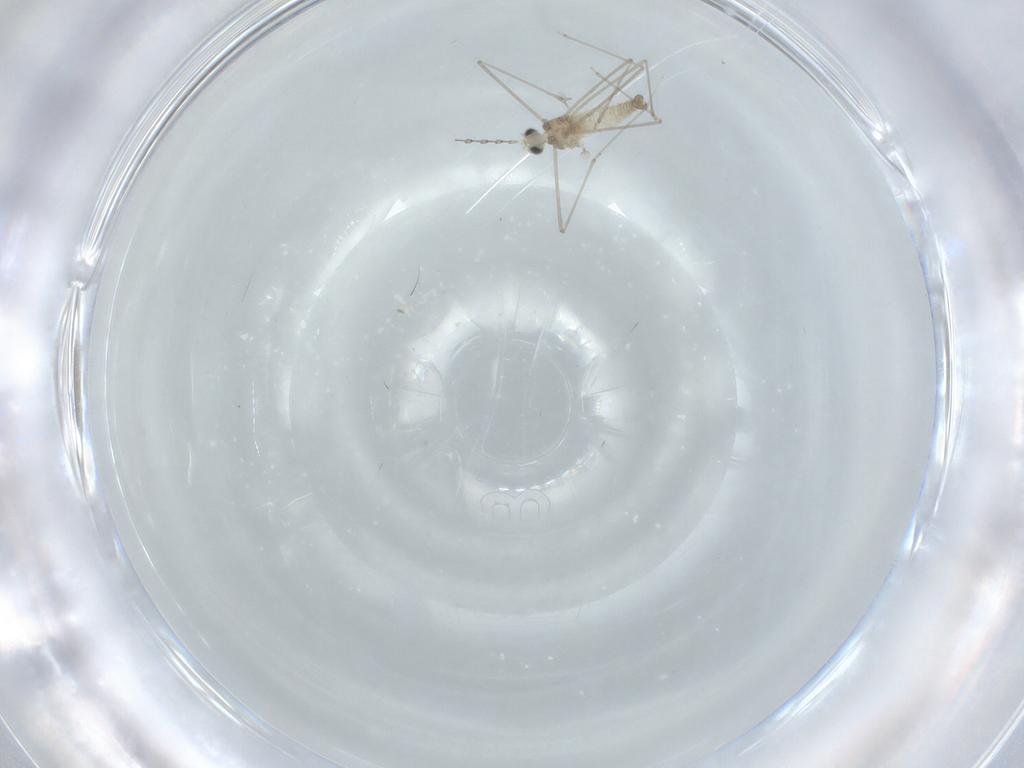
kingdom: Animalia
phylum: Arthropoda
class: Insecta
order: Diptera
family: Cecidomyiidae
